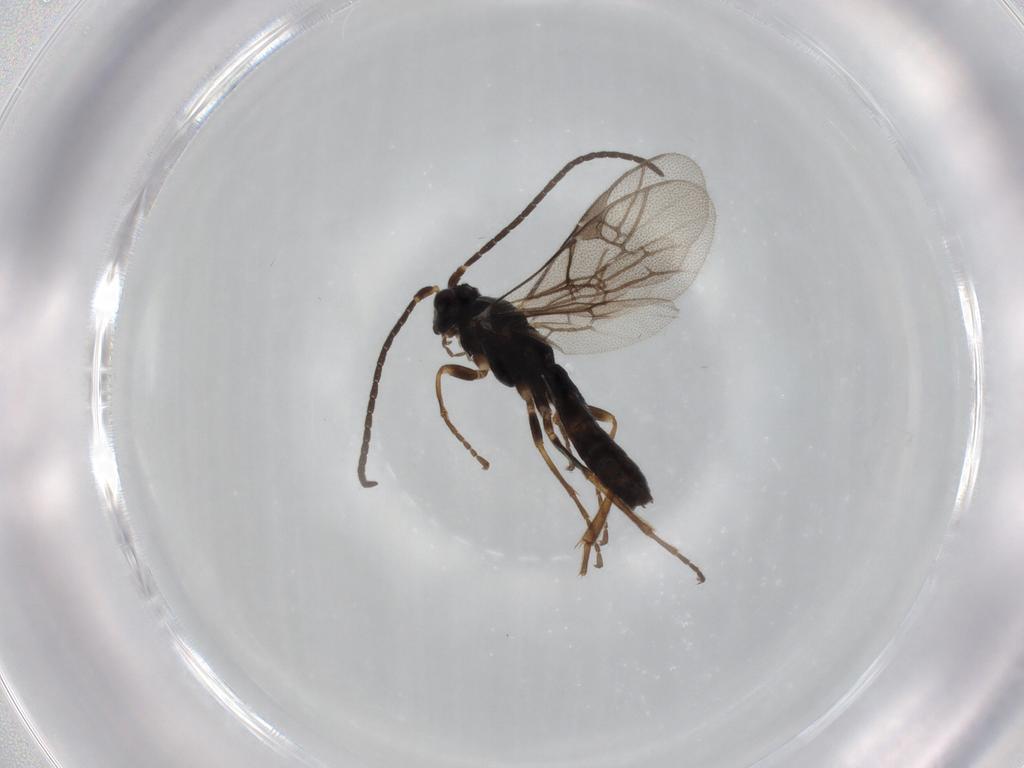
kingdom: Animalia
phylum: Arthropoda
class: Insecta
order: Hymenoptera
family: Ichneumonidae
